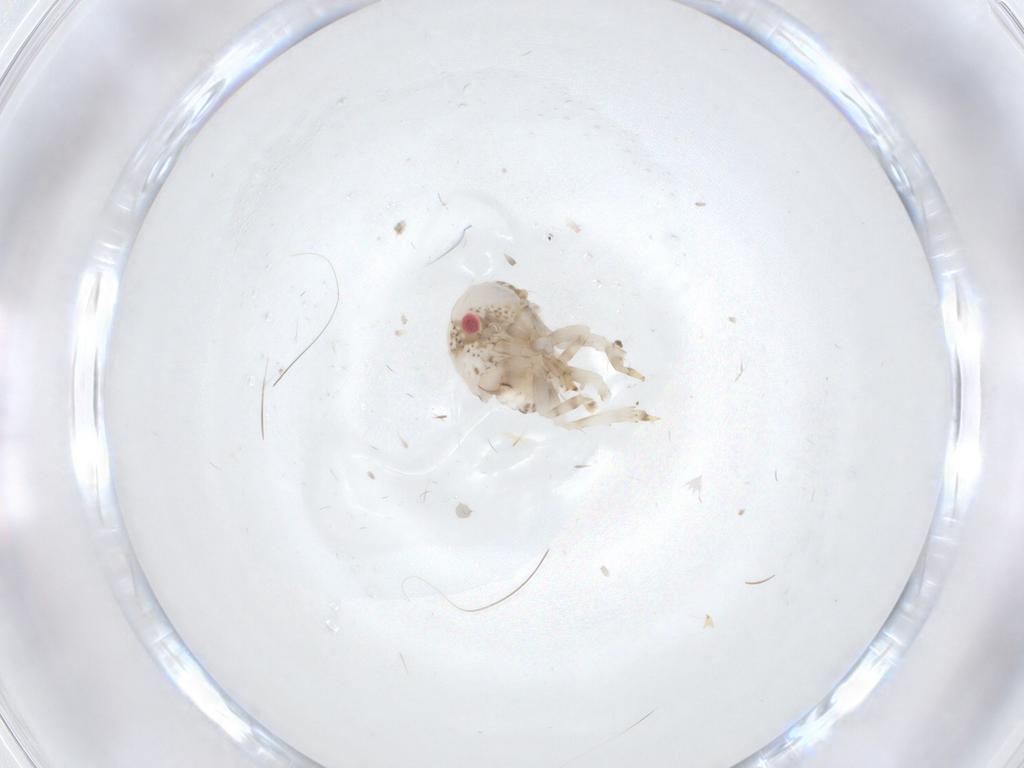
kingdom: Animalia
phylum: Arthropoda
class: Insecta
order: Hemiptera
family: Acanaloniidae
